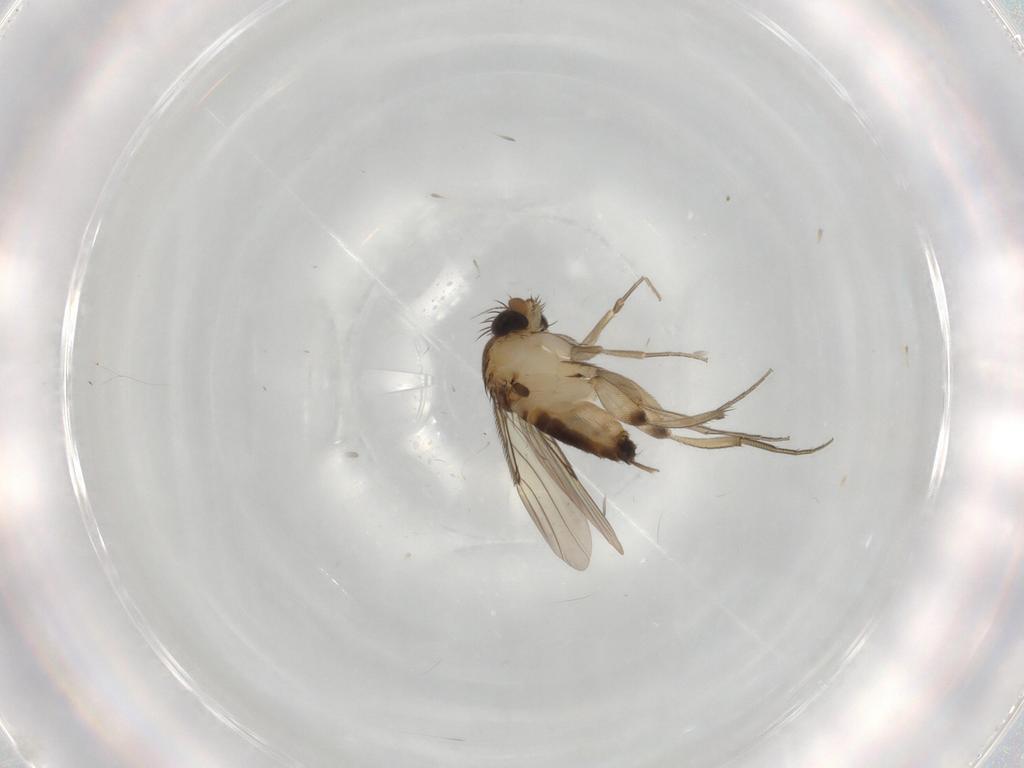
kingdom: Animalia
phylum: Arthropoda
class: Insecta
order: Diptera
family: Phoridae
